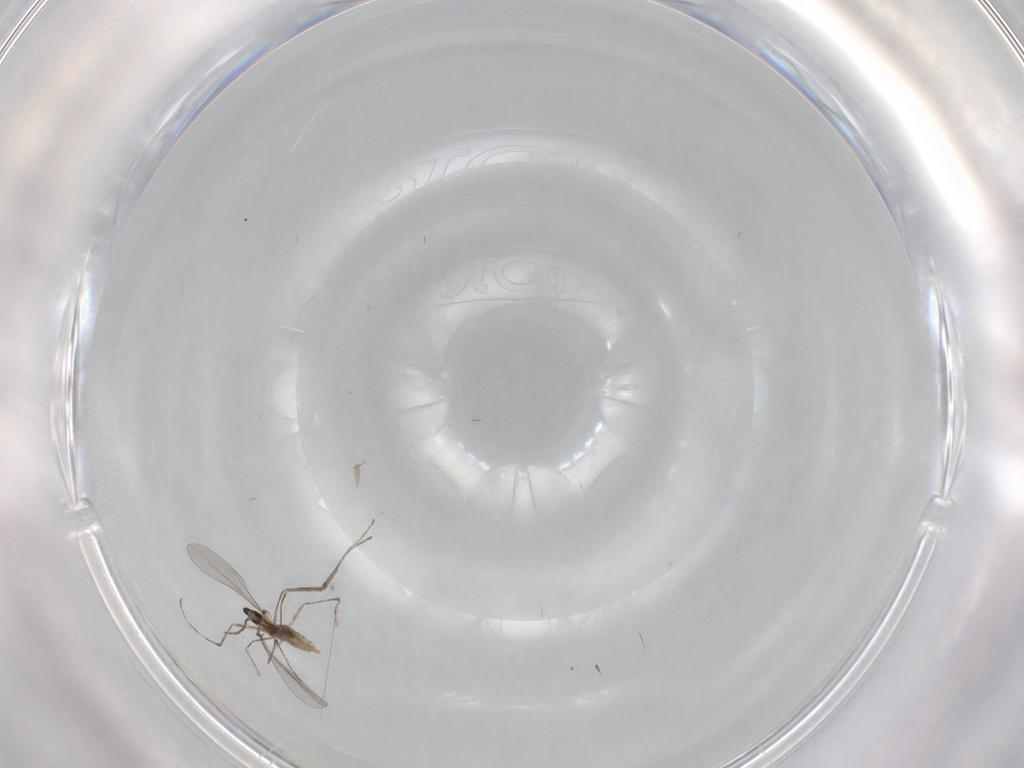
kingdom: Animalia
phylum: Arthropoda
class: Insecta
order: Diptera
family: Cecidomyiidae
